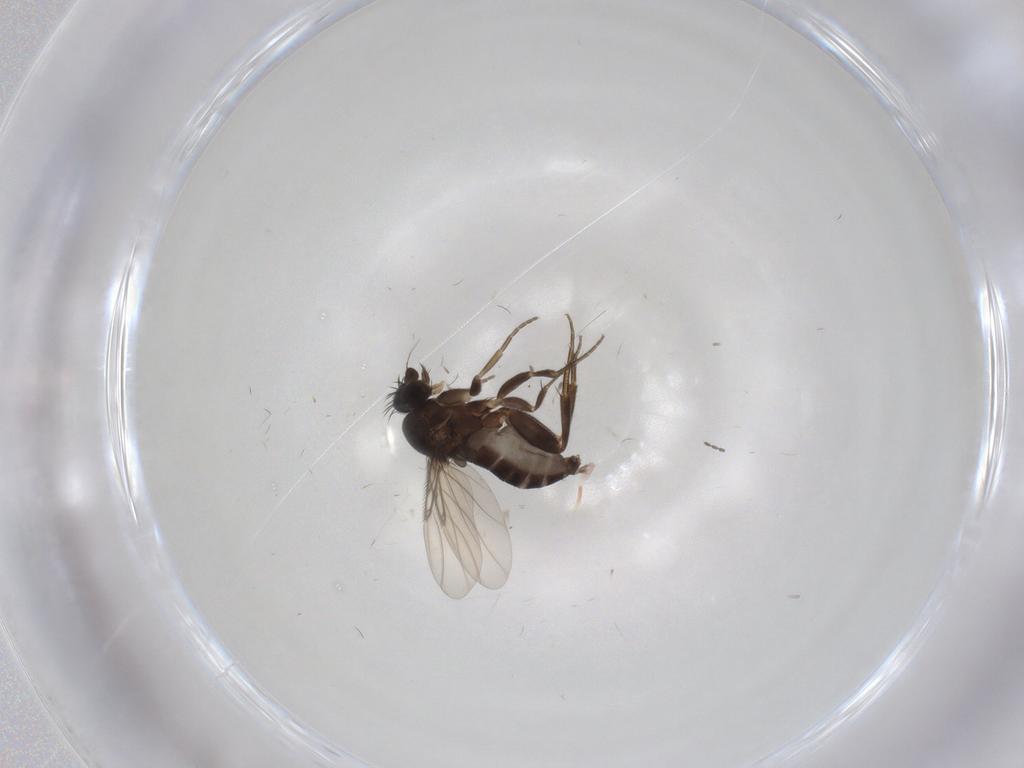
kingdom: Animalia
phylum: Arthropoda
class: Insecta
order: Diptera
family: Phoridae
